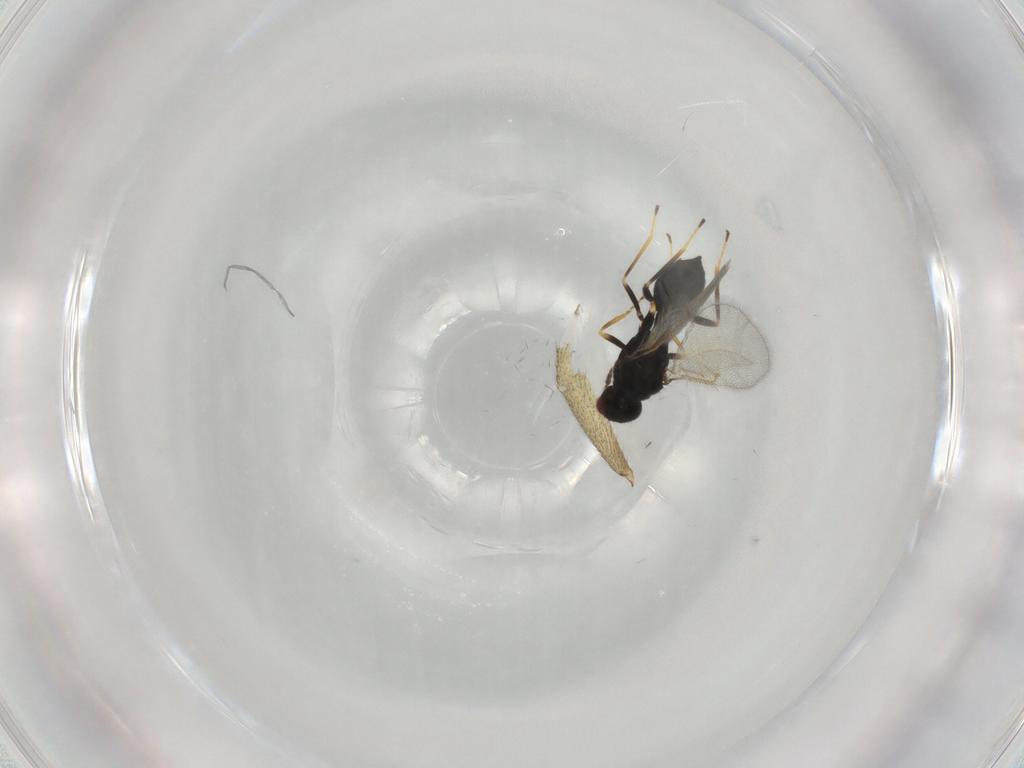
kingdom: Animalia
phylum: Arthropoda
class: Insecta
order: Hymenoptera
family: Eulophidae
